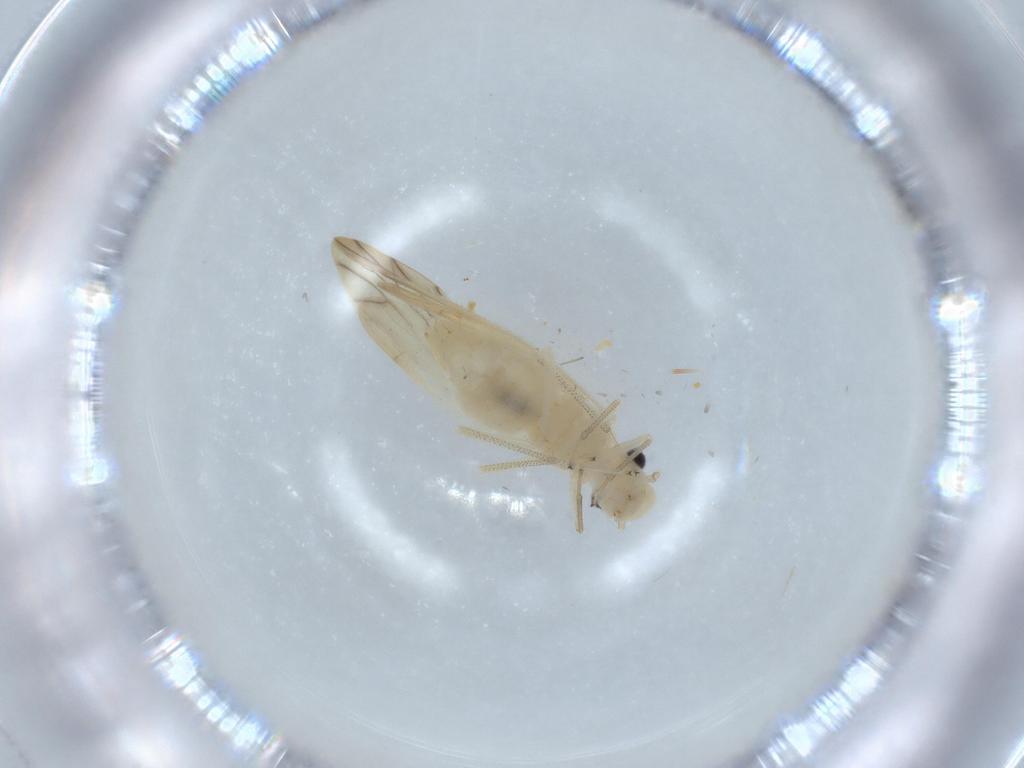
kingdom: Animalia
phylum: Arthropoda
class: Insecta
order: Psocodea
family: Caeciliusidae
